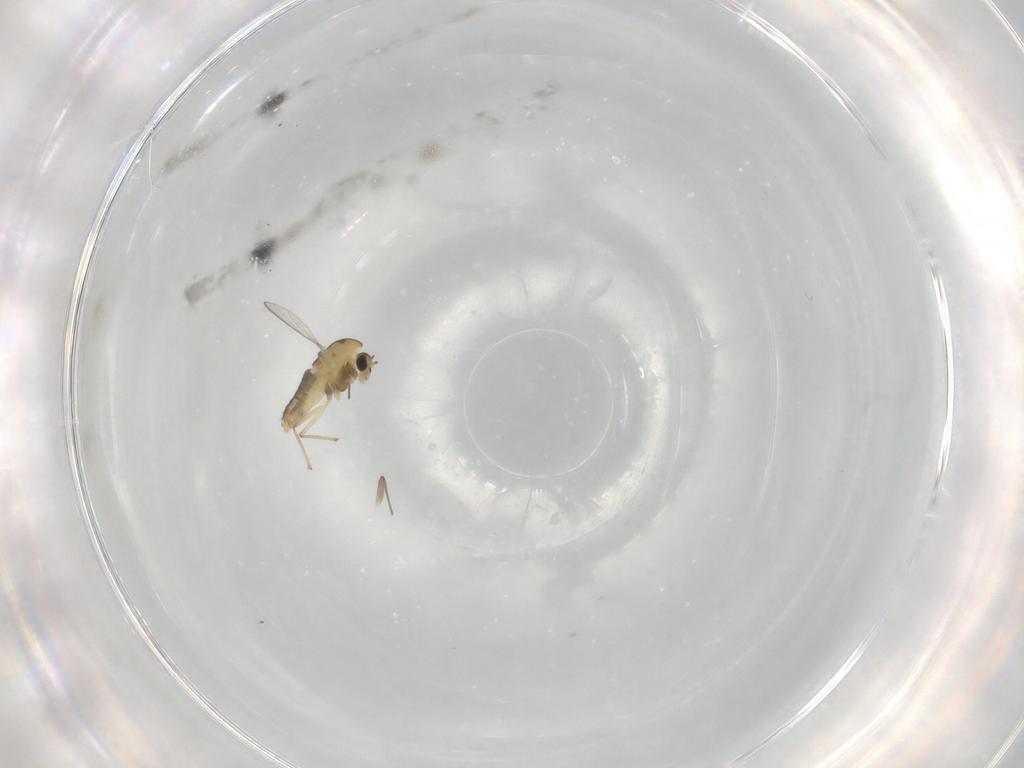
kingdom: Animalia
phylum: Arthropoda
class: Insecta
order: Diptera
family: Chironomidae
